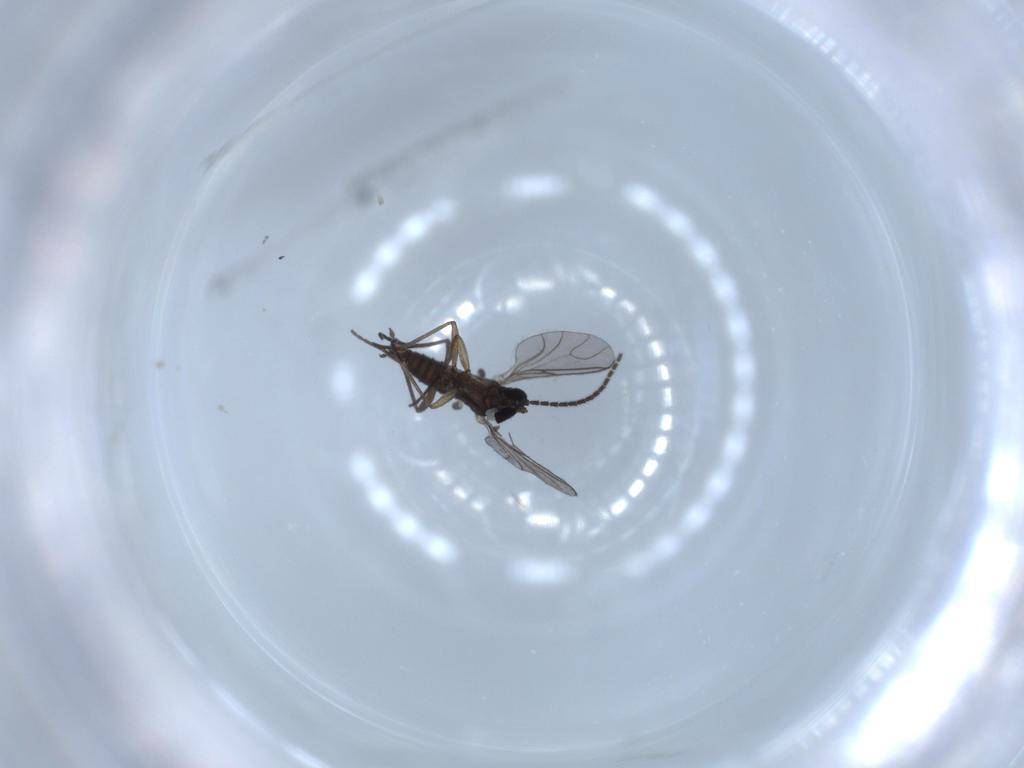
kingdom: Animalia
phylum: Arthropoda
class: Insecta
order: Diptera
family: Sciaridae
